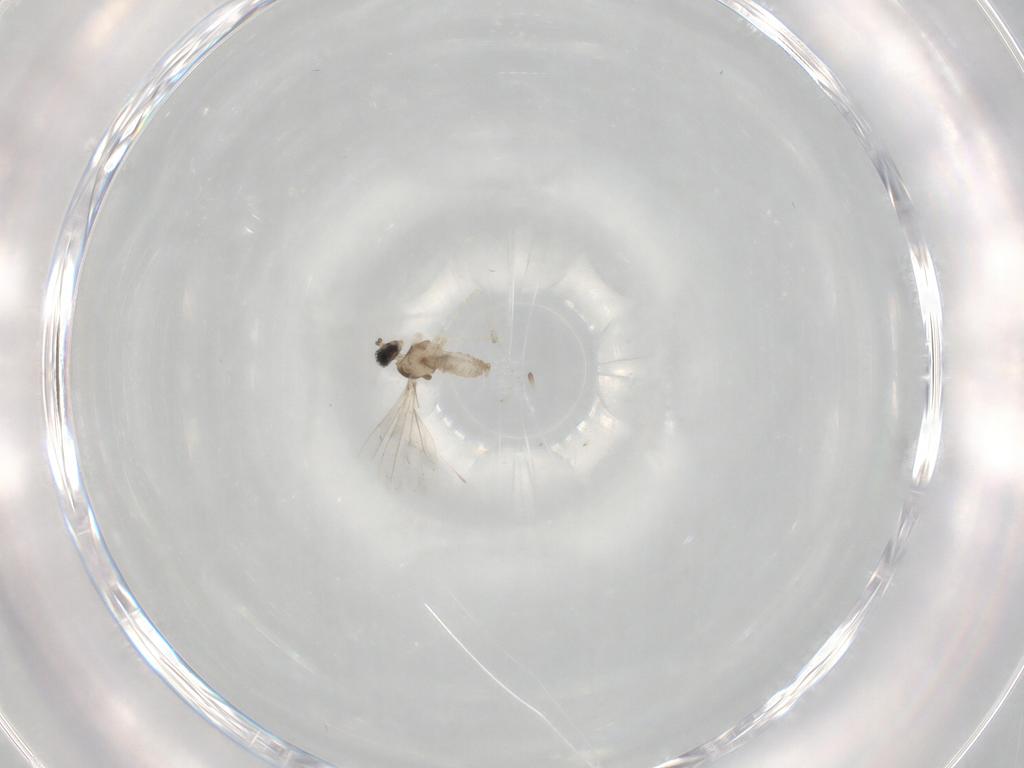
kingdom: Animalia
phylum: Arthropoda
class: Insecta
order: Diptera
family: Cecidomyiidae
